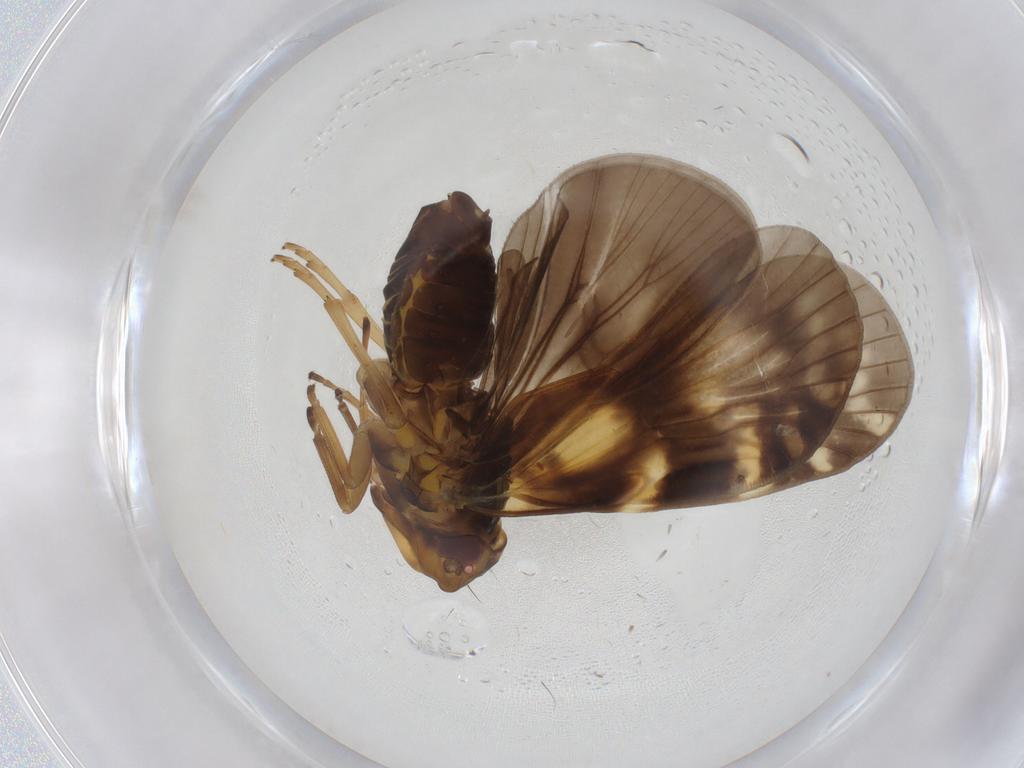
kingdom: Animalia
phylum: Arthropoda
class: Insecta
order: Hemiptera
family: Cixiidae
